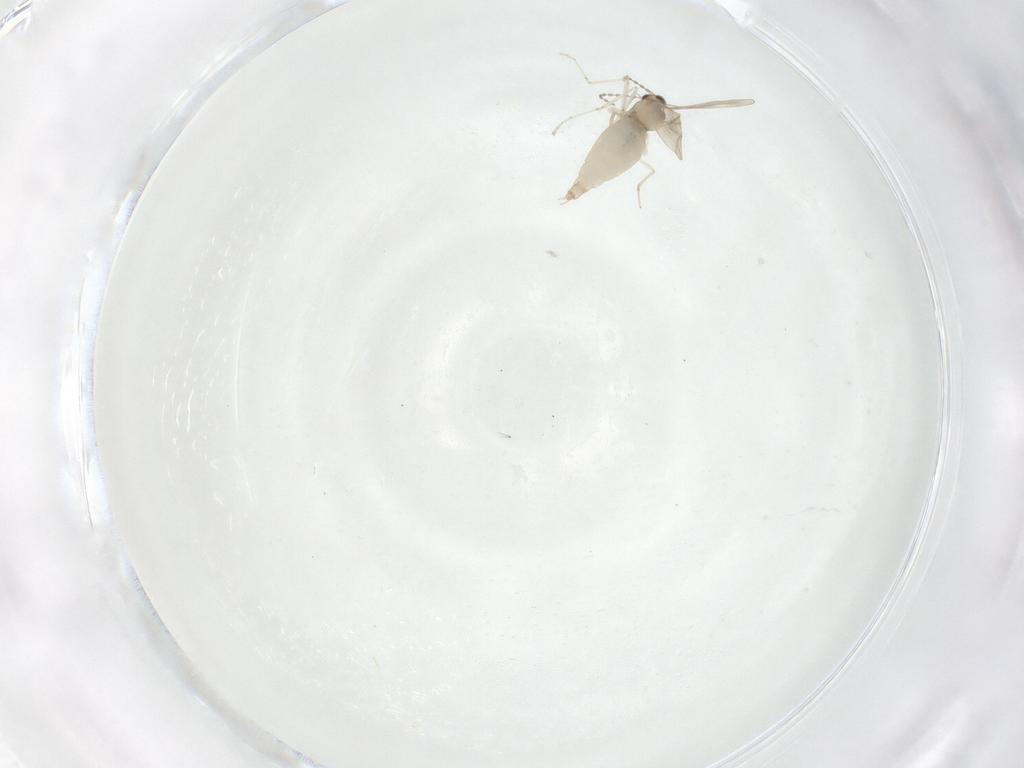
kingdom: Animalia
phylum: Arthropoda
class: Insecta
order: Diptera
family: Cecidomyiidae
